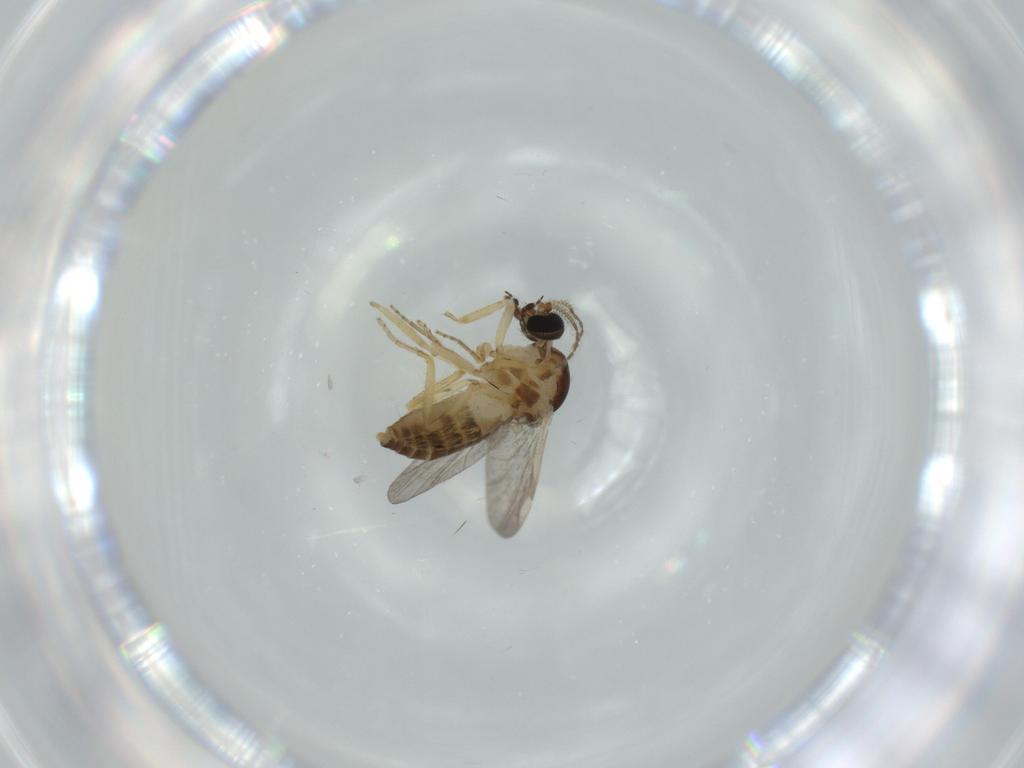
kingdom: Animalia
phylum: Arthropoda
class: Insecta
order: Diptera
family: Ceratopogonidae
